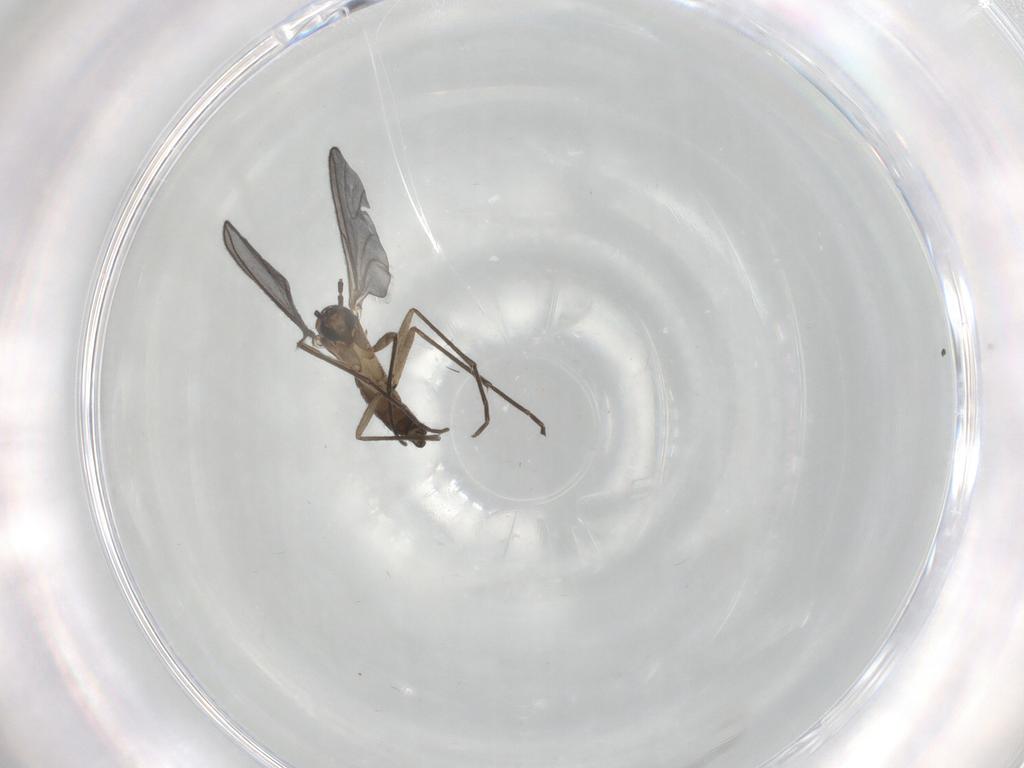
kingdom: Animalia
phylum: Arthropoda
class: Insecta
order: Diptera
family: Sciaridae
